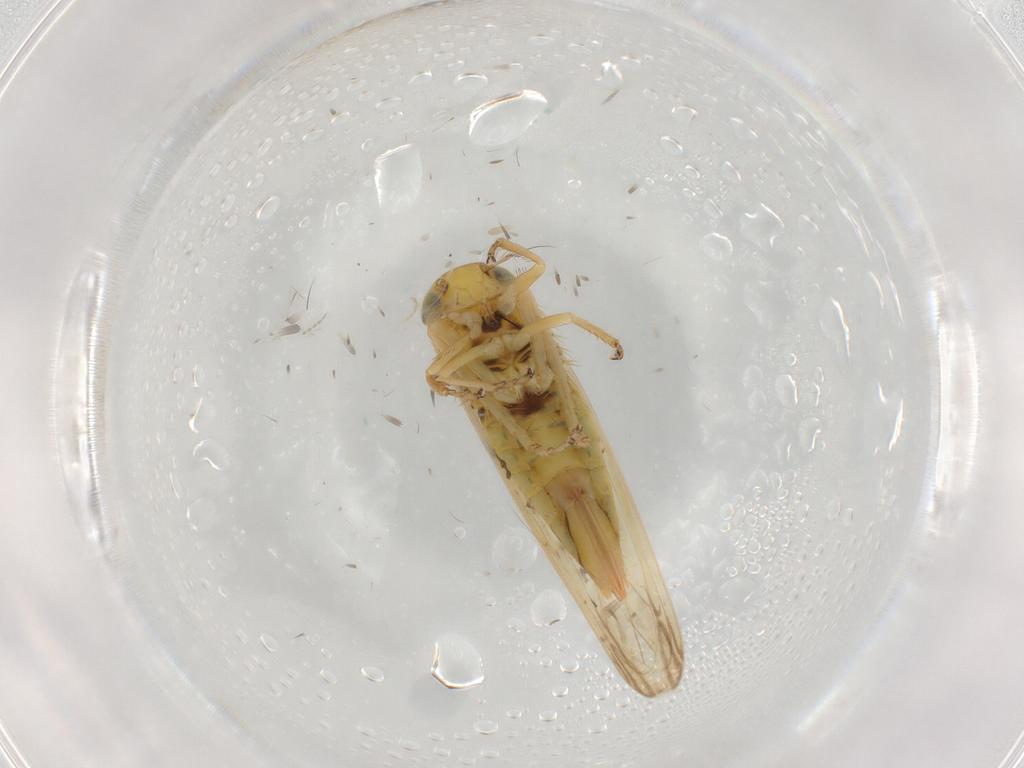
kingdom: Animalia
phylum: Arthropoda
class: Insecta
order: Hemiptera
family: Cicadellidae
